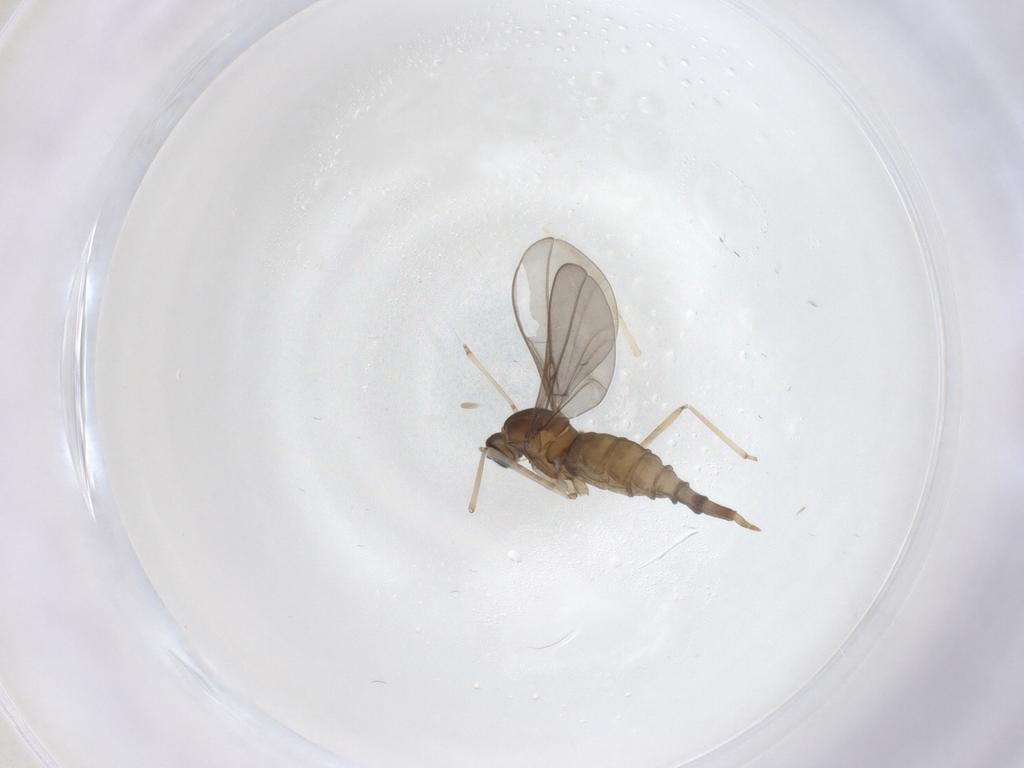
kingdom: Animalia
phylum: Arthropoda
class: Insecta
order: Diptera
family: Cecidomyiidae
